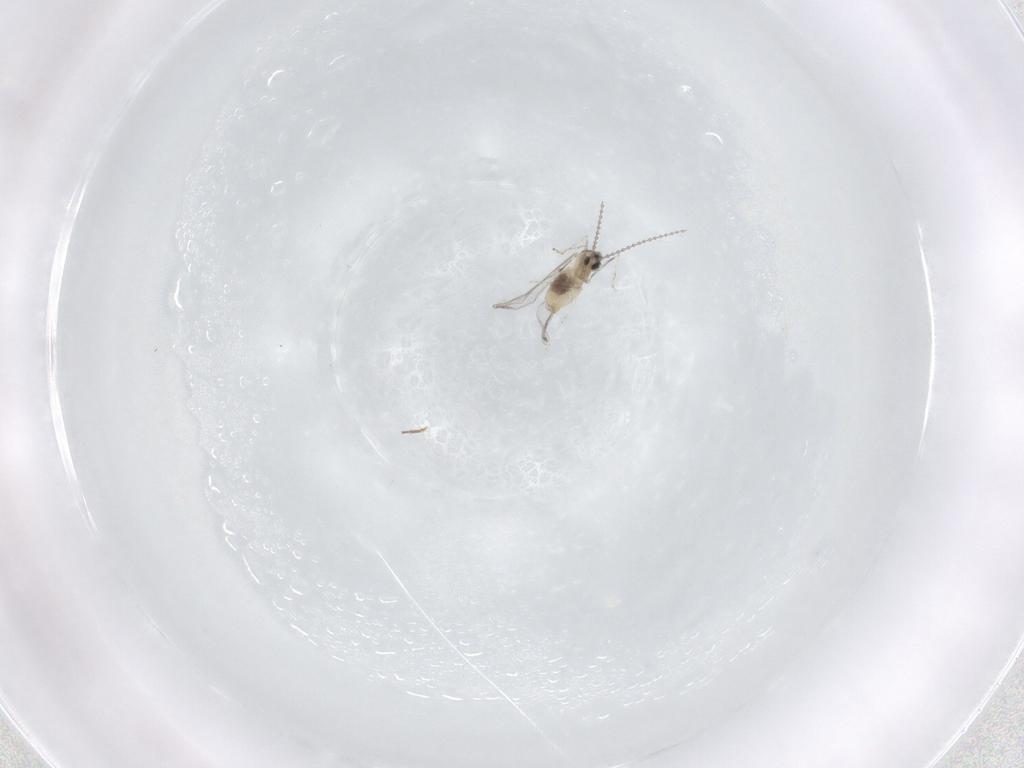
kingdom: Animalia
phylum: Arthropoda
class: Insecta
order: Diptera
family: Cecidomyiidae
